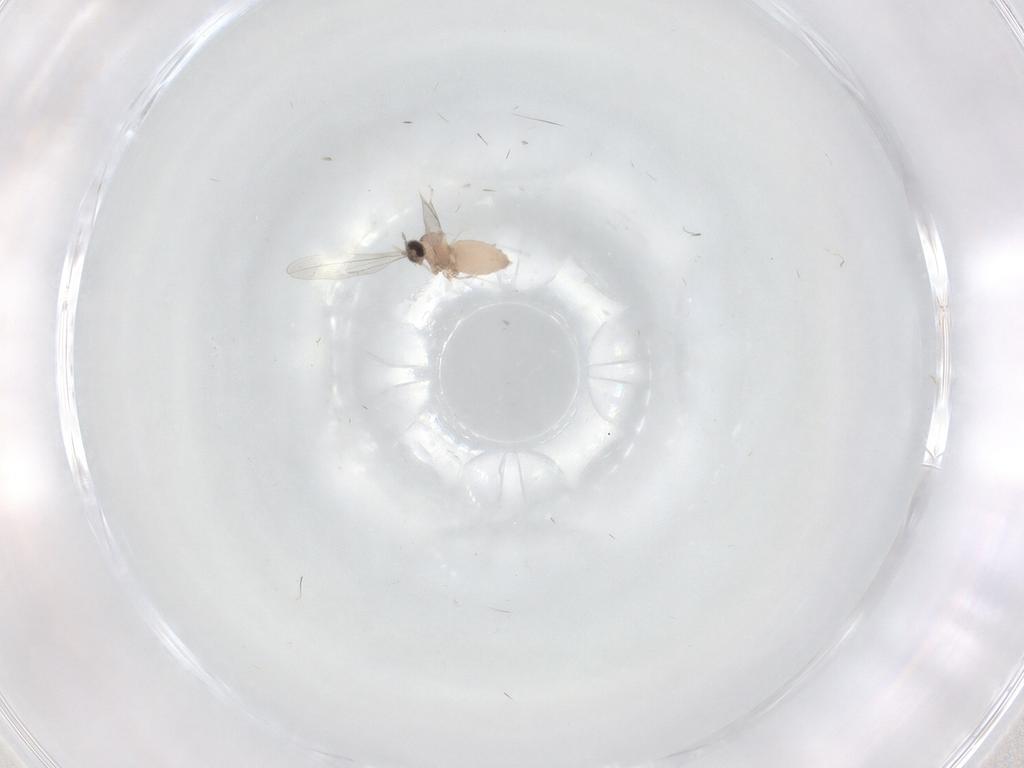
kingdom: Animalia
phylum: Arthropoda
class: Insecta
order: Diptera
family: Cecidomyiidae
